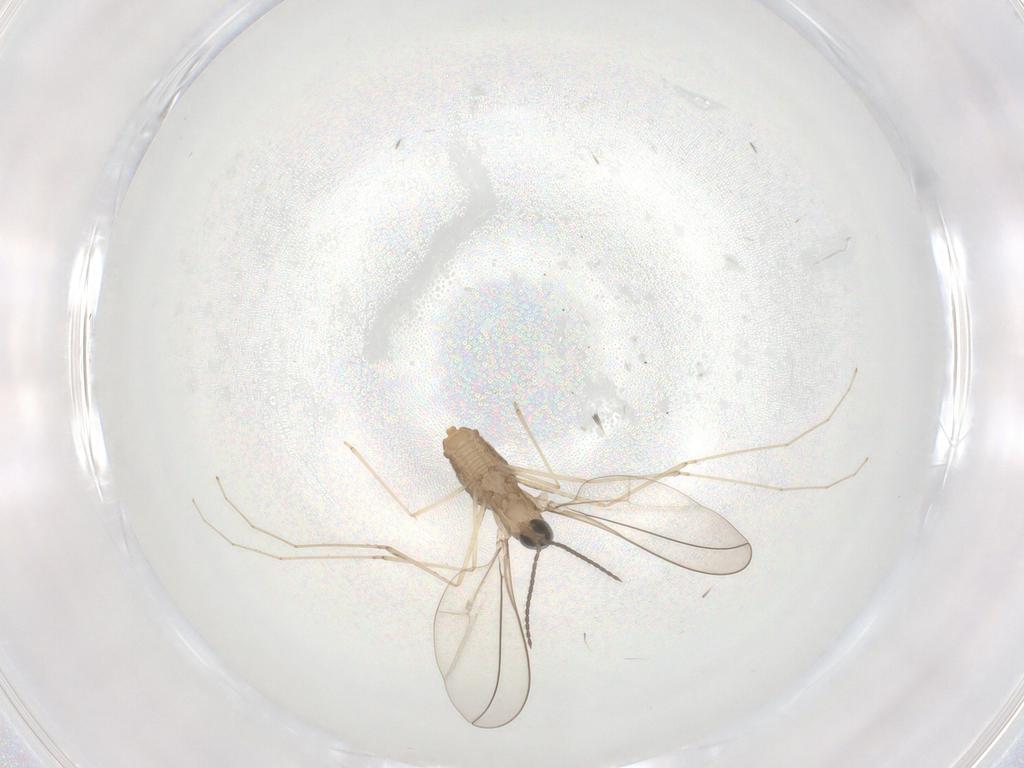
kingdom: Animalia
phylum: Arthropoda
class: Insecta
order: Diptera
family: Cecidomyiidae
